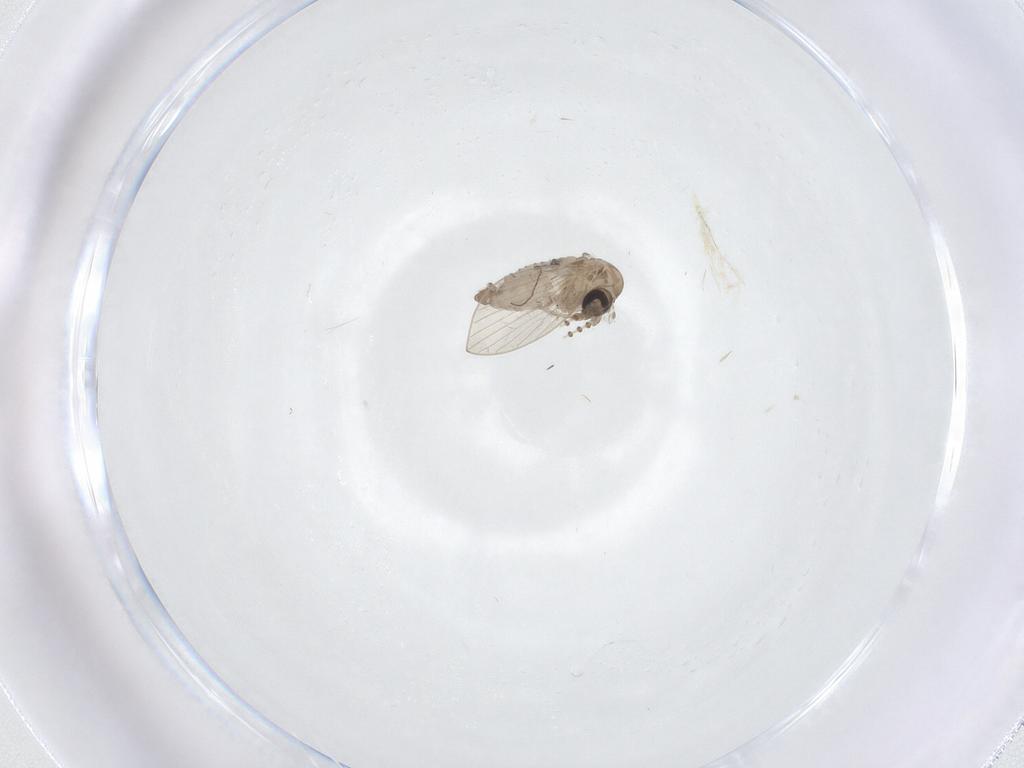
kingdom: Animalia
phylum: Arthropoda
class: Insecta
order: Diptera
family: Psychodidae
